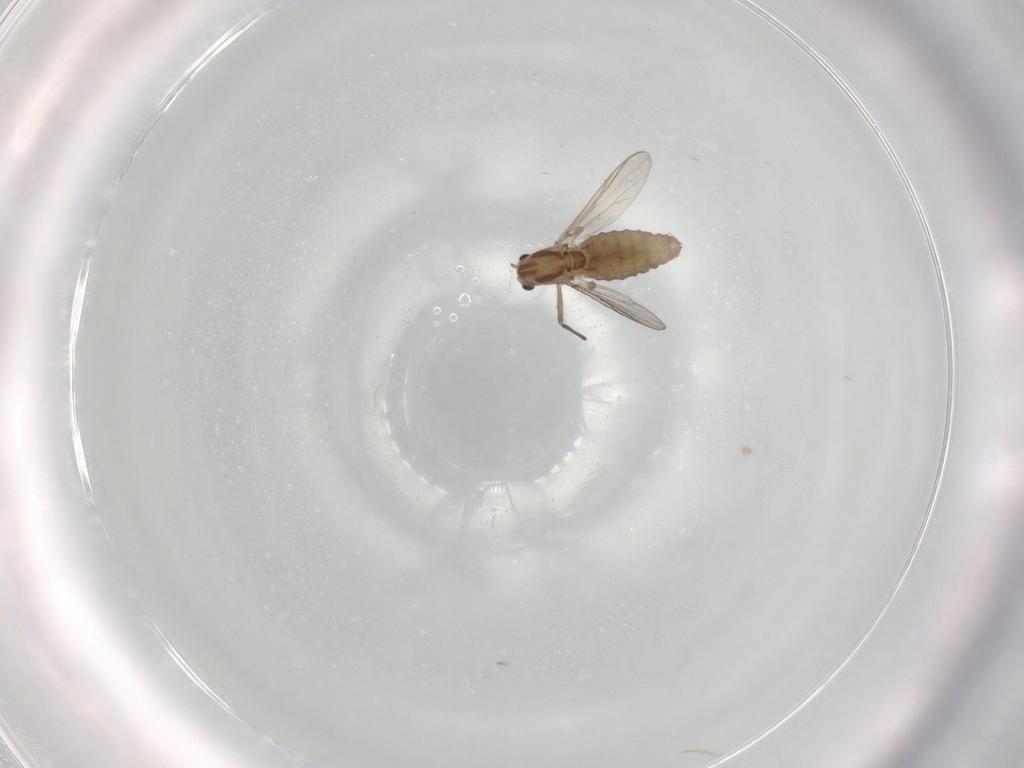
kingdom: Animalia
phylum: Arthropoda
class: Insecta
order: Diptera
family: Chironomidae
